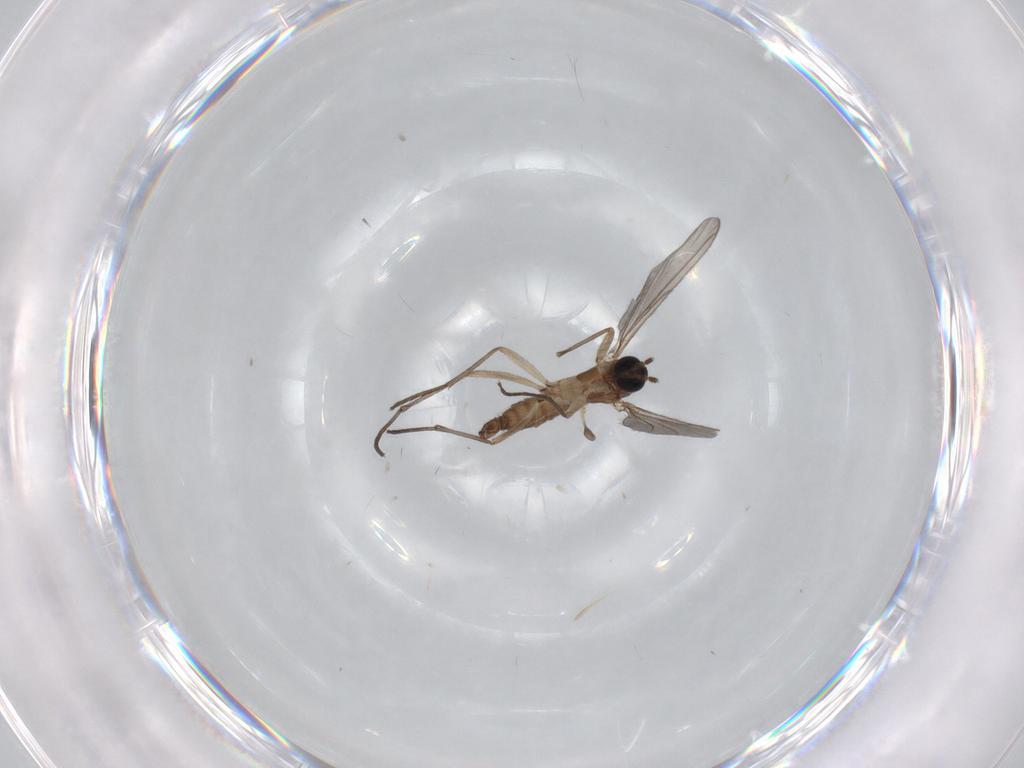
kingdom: Animalia
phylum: Arthropoda
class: Insecta
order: Diptera
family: Sciaridae
